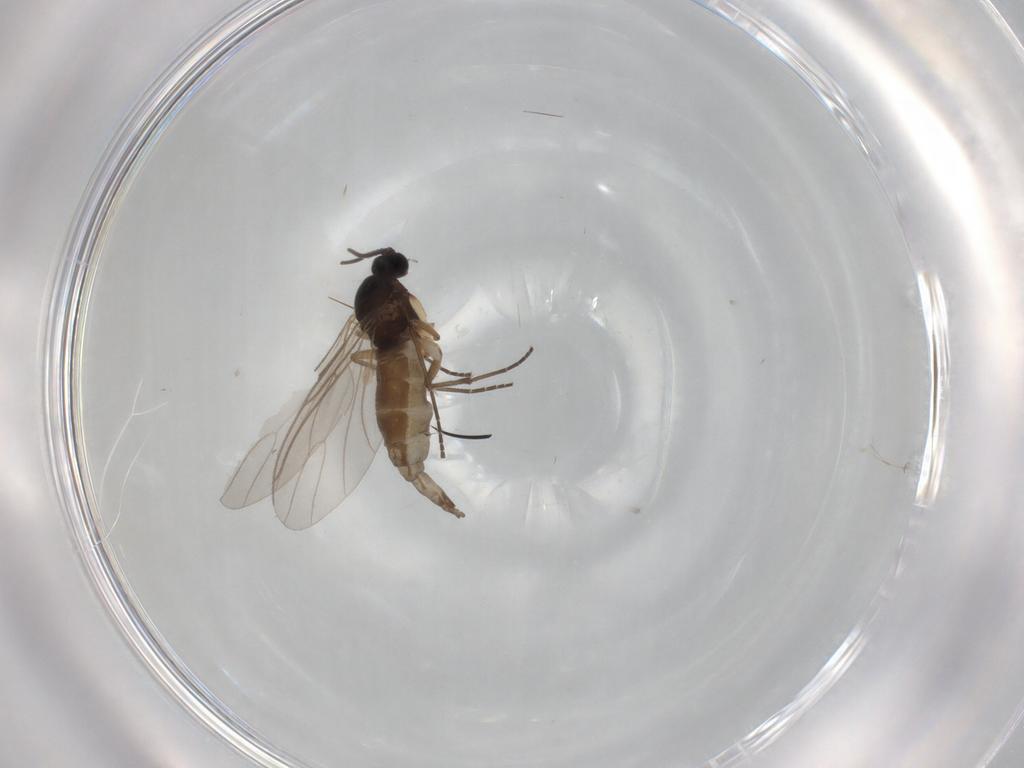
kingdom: Animalia
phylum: Arthropoda
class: Insecta
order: Diptera
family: Sciaridae
